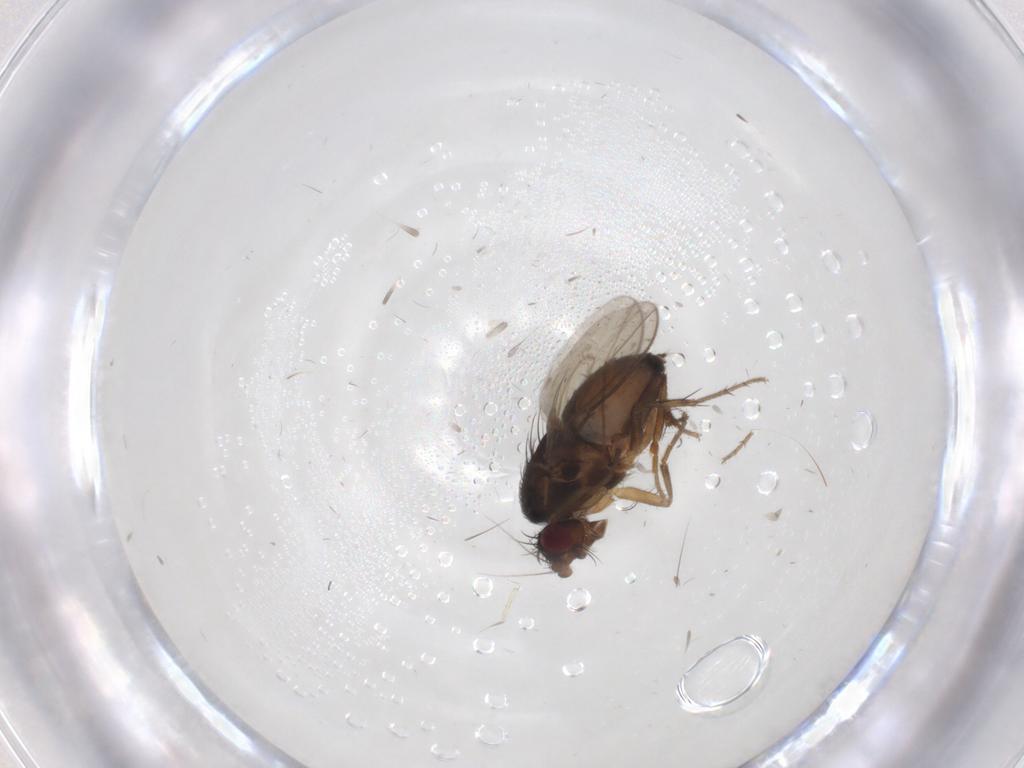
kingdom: Animalia
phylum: Arthropoda
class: Insecta
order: Diptera
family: Sphaeroceridae
